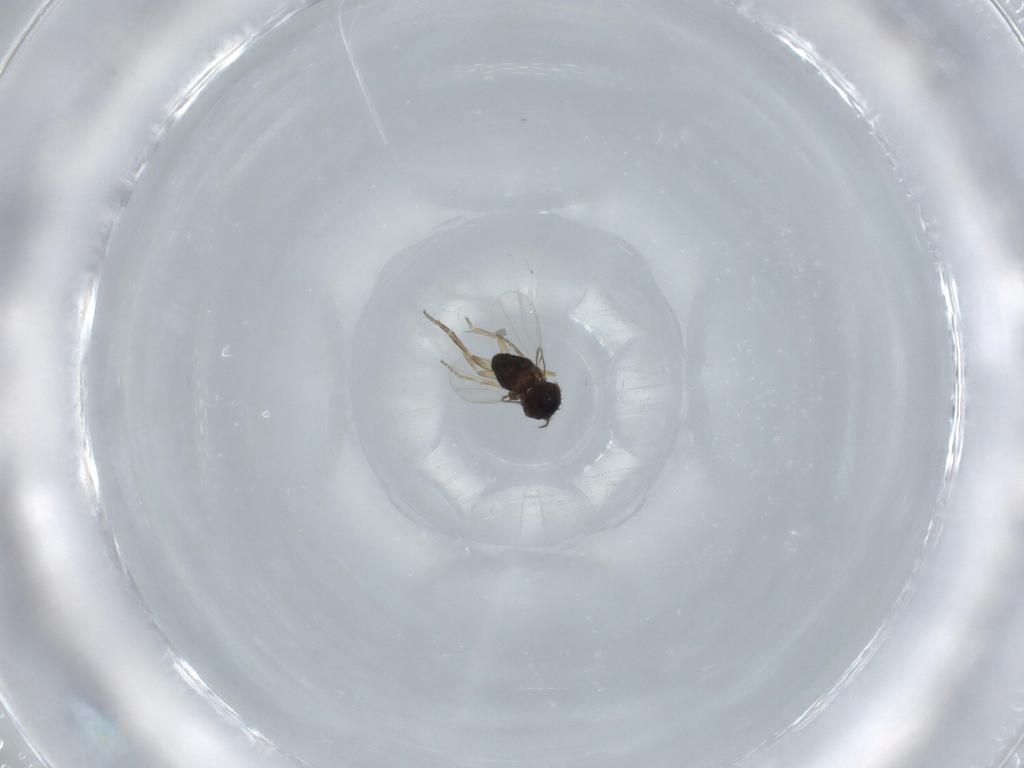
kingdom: Animalia
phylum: Arthropoda
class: Insecta
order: Diptera
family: Phoridae
